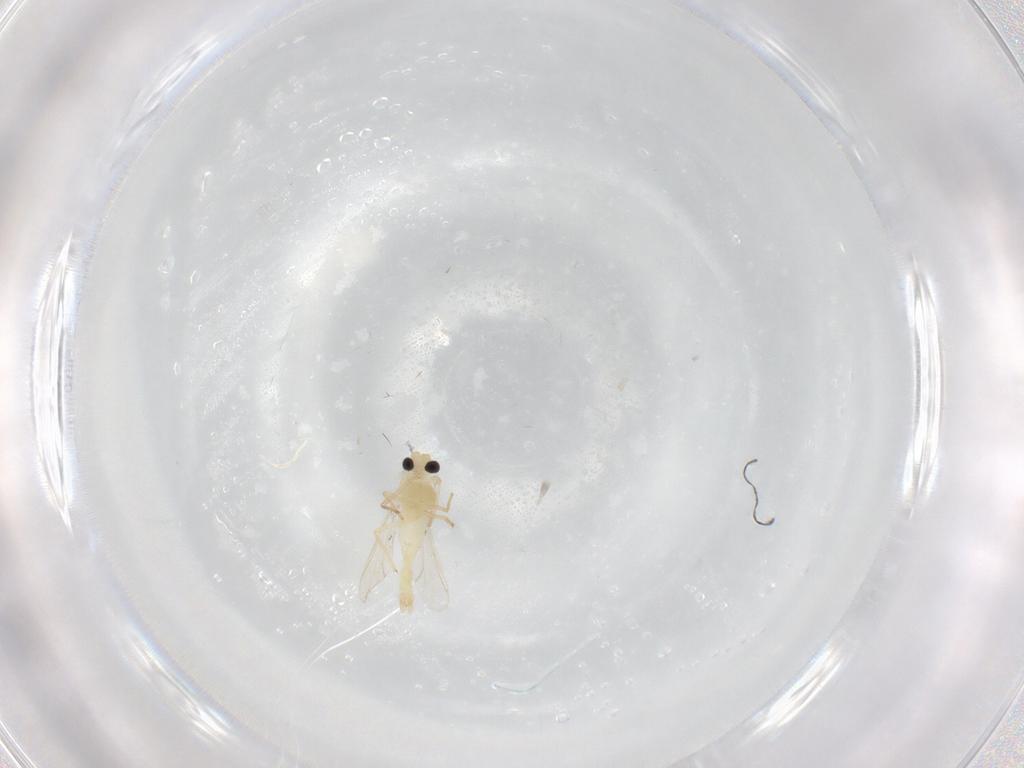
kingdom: Animalia
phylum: Arthropoda
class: Insecta
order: Diptera
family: Chironomidae
